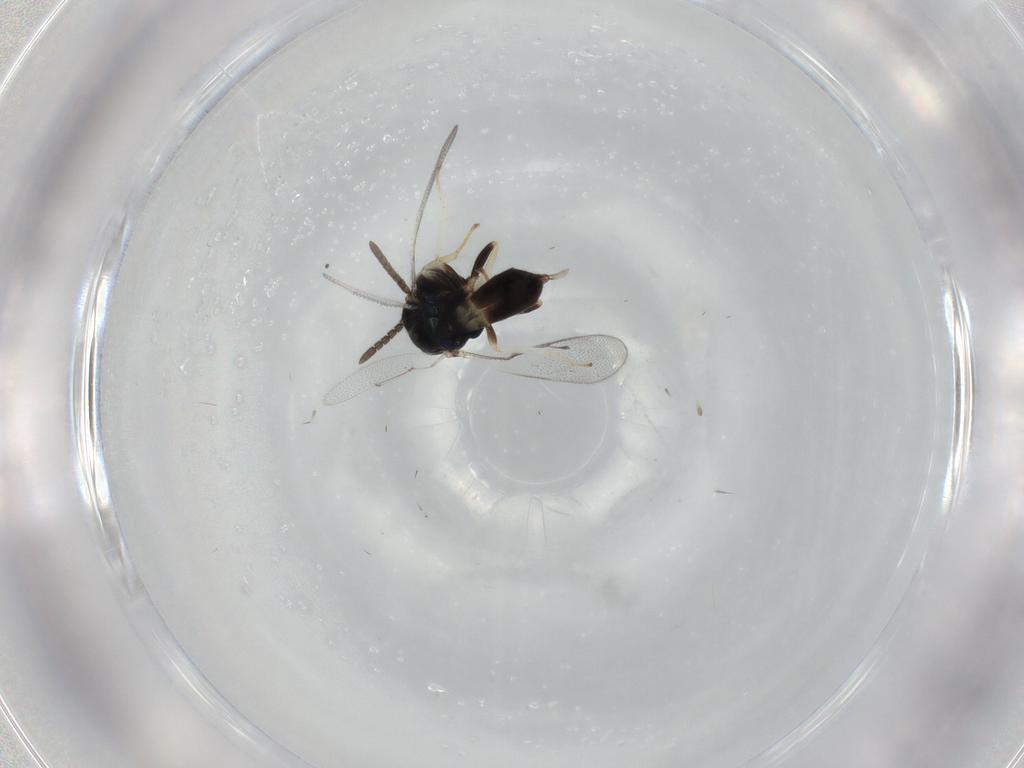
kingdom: Animalia
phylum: Arthropoda
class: Insecta
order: Hymenoptera
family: Pteromalidae
